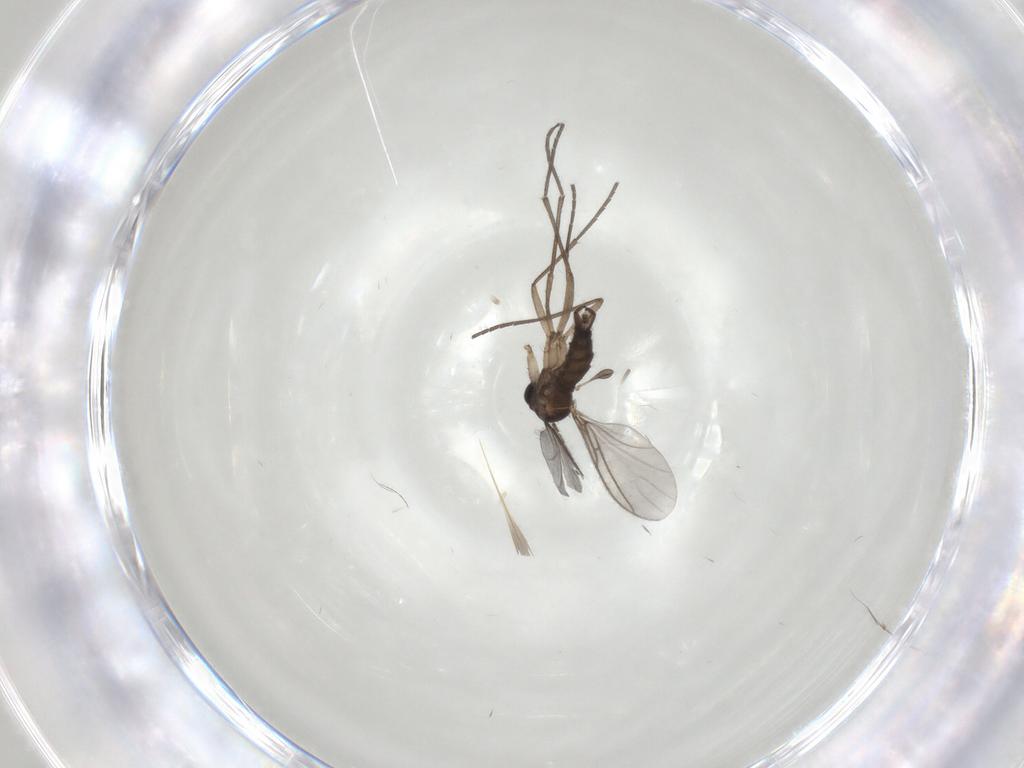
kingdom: Animalia
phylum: Arthropoda
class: Insecta
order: Diptera
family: Sciaridae
